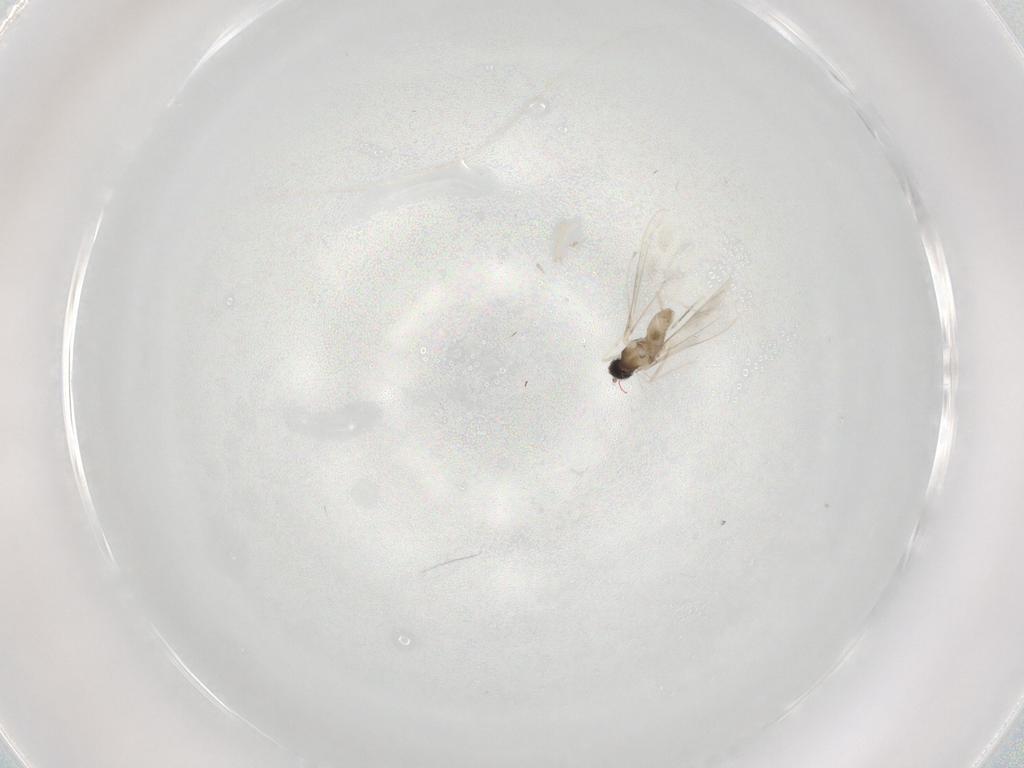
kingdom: Animalia
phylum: Arthropoda
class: Insecta
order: Diptera
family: Cecidomyiidae
